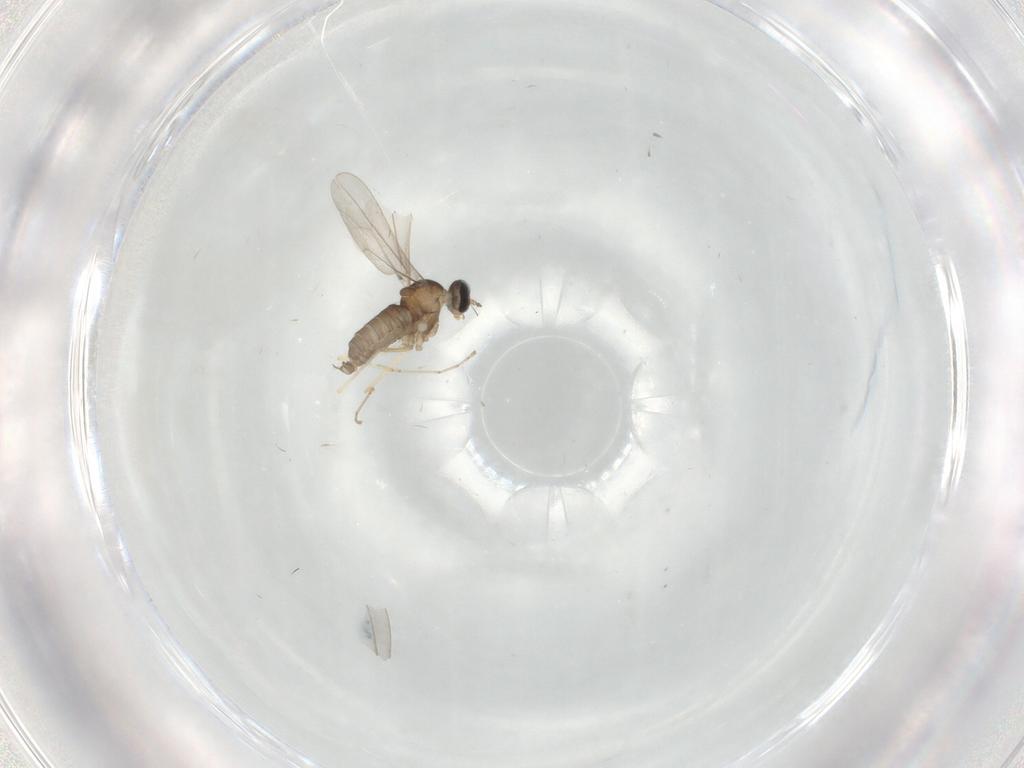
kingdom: Animalia
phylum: Arthropoda
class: Insecta
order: Diptera
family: Cecidomyiidae
